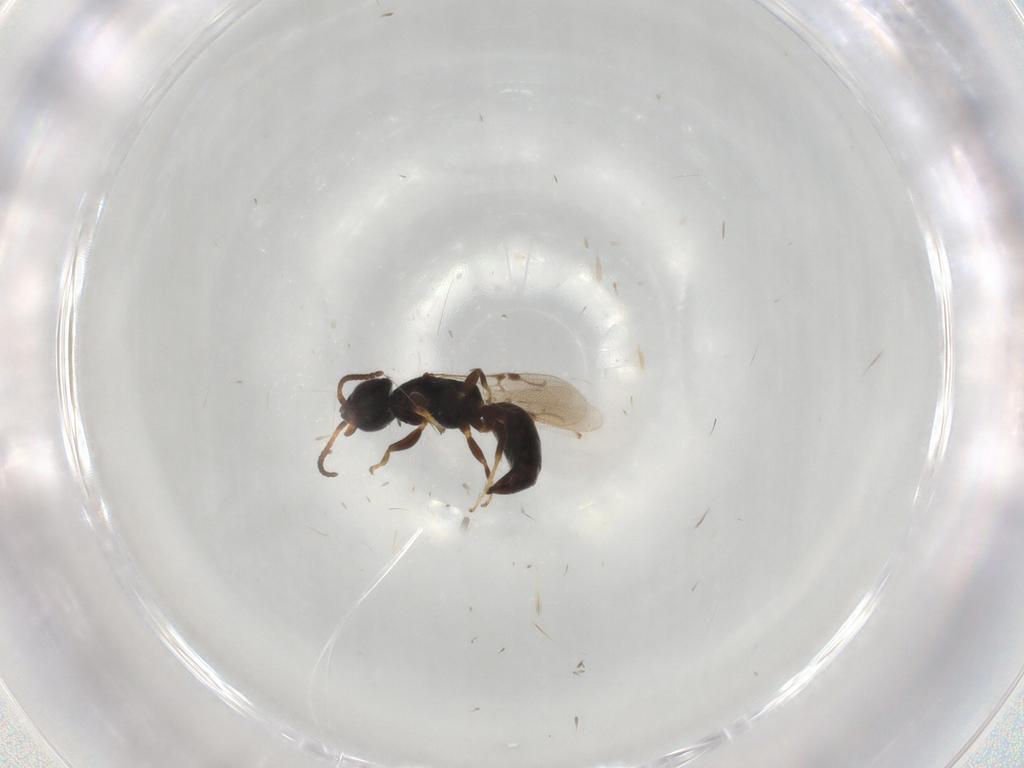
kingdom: Animalia
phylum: Arthropoda
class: Insecta
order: Hymenoptera
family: Bethylidae
